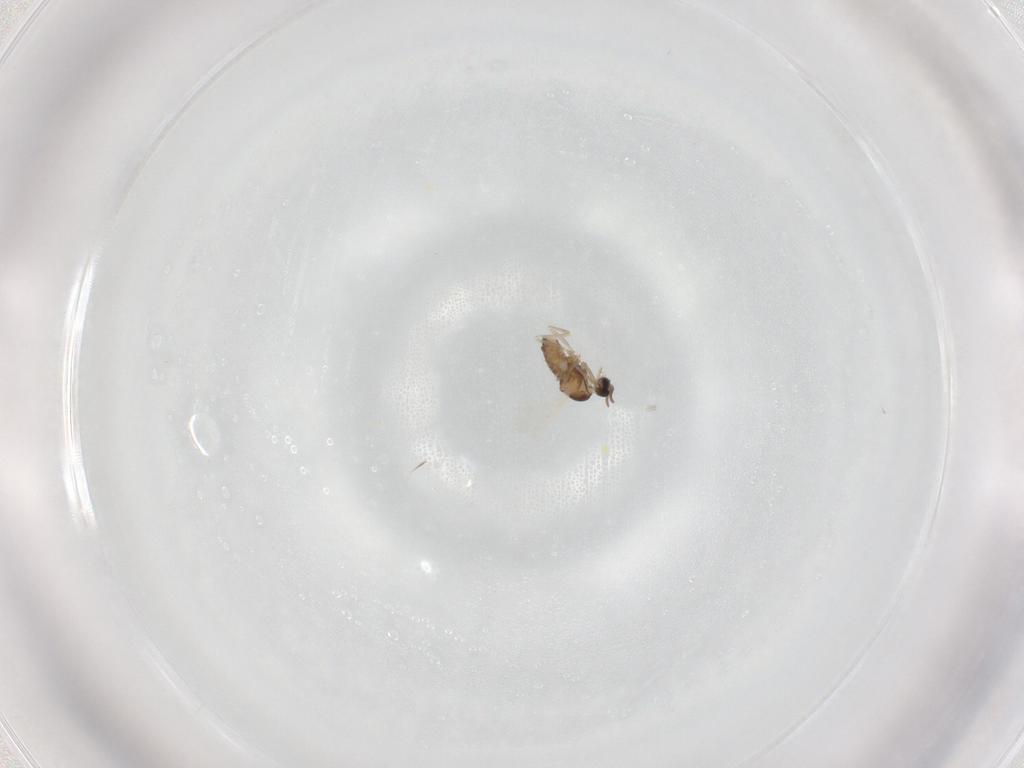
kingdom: Animalia
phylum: Arthropoda
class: Insecta
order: Diptera
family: Cecidomyiidae
